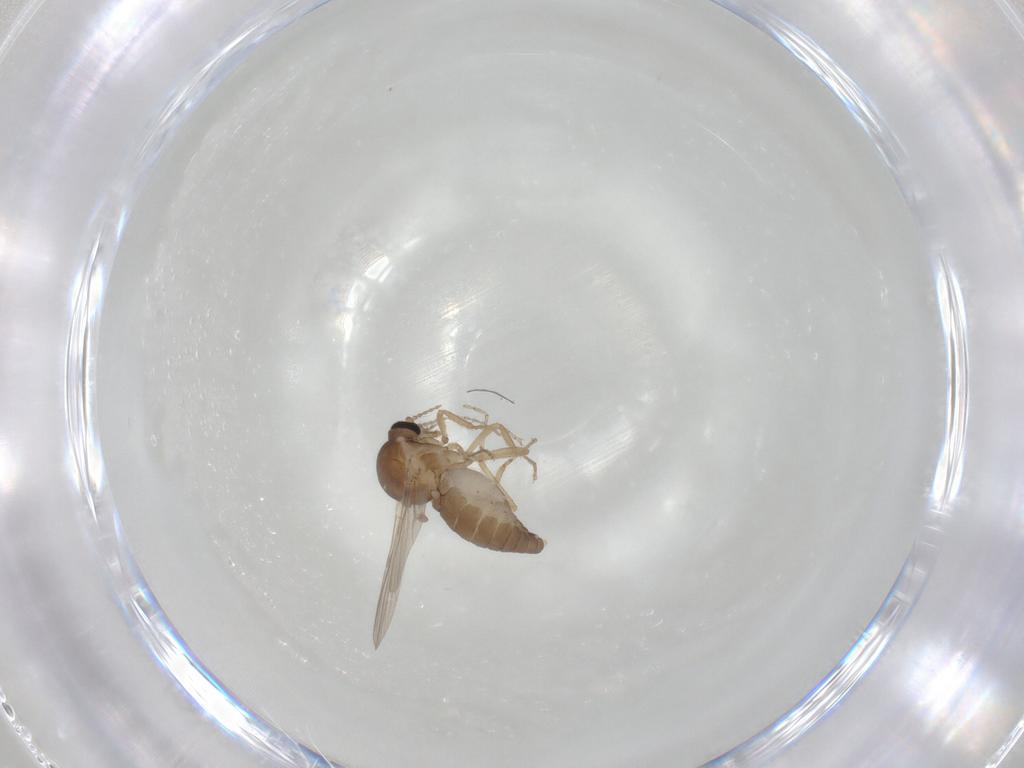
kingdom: Animalia
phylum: Arthropoda
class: Insecta
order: Diptera
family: Ceratopogonidae
